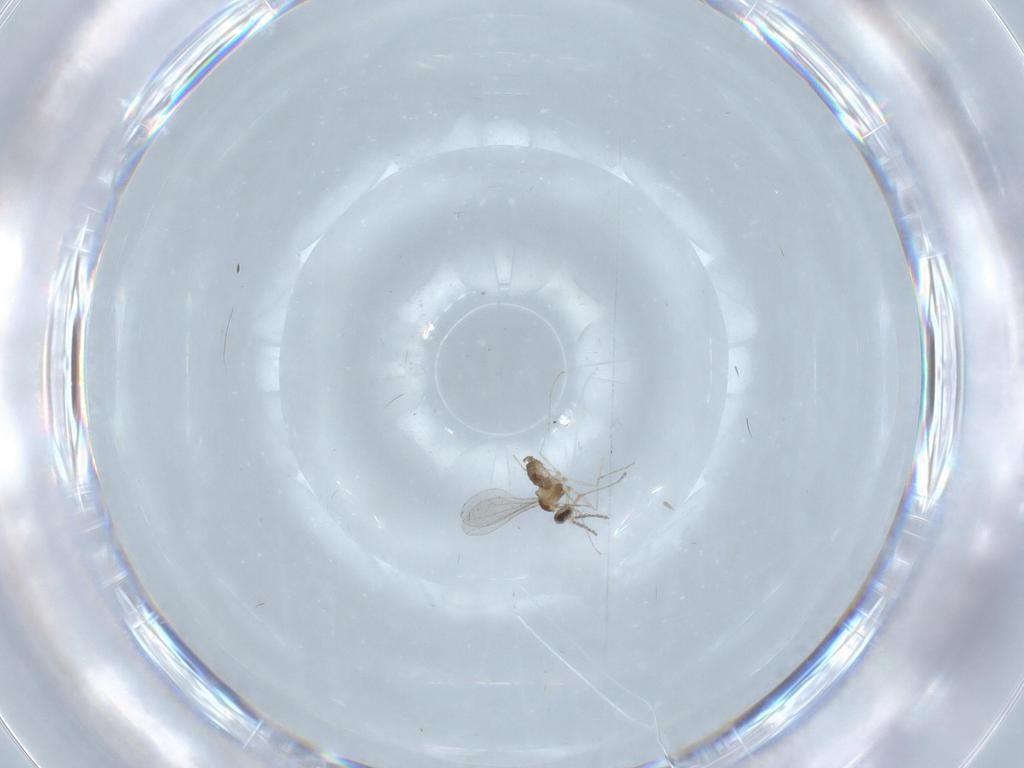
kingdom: Animalia
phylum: Arthropoda
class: Insecta
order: Diptera
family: Cecidomyiidae
